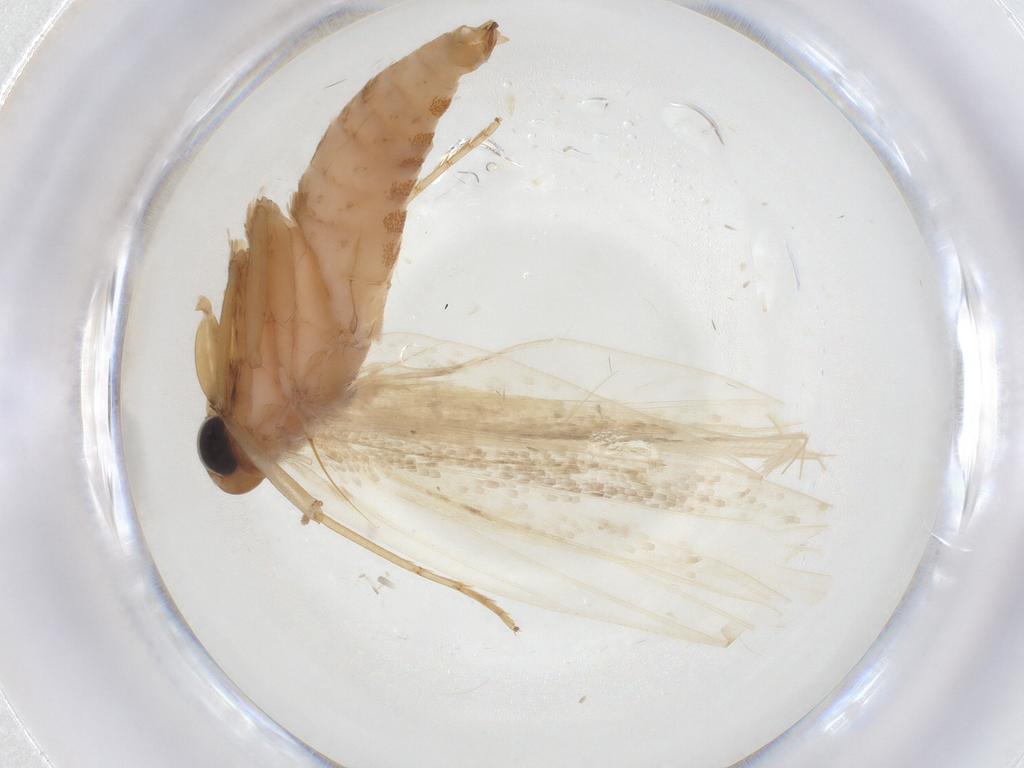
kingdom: Animalia
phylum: Arthropoda
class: Insecta
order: Lepidoptera
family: Erebidae
